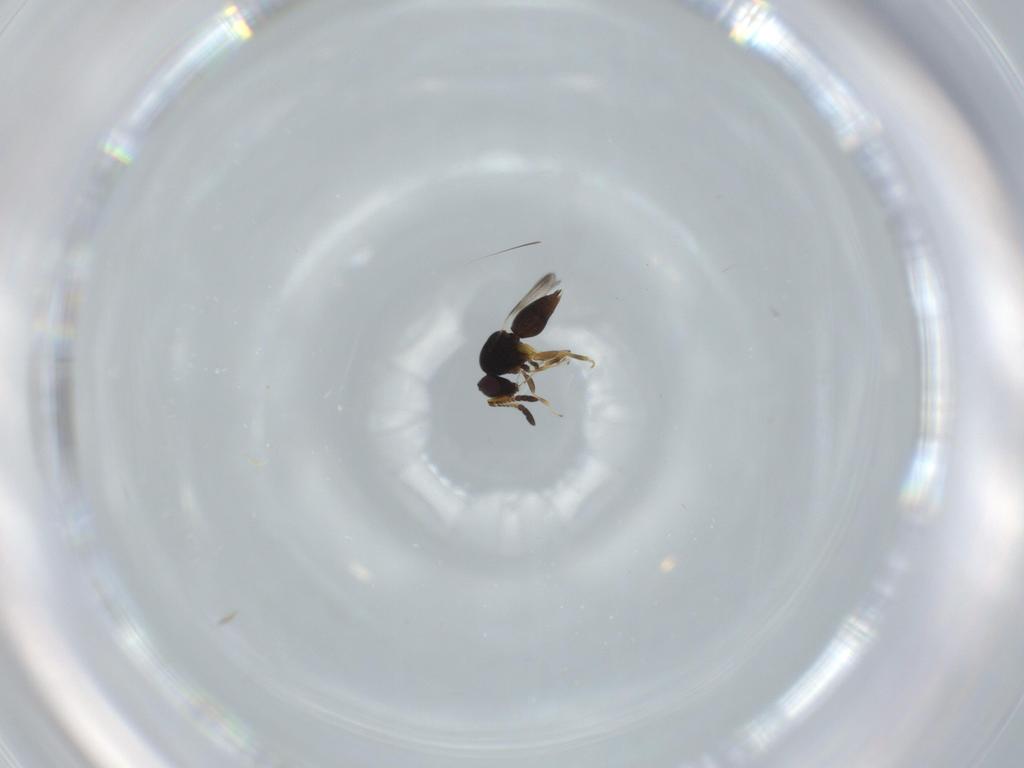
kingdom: Animalia
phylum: Arthropoda
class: Insecta
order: Hymenoptera
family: Ceraphronidae
